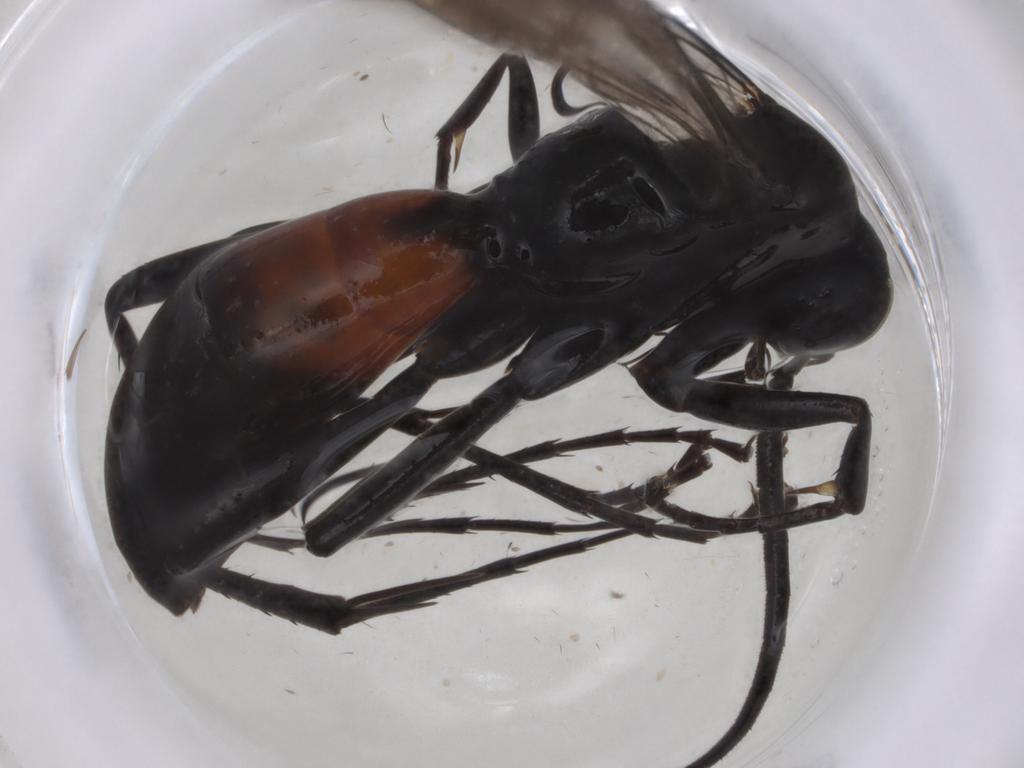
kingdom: Animalia
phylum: Arthropoda
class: Insecta
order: Hymenoptera
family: Pompilidae
